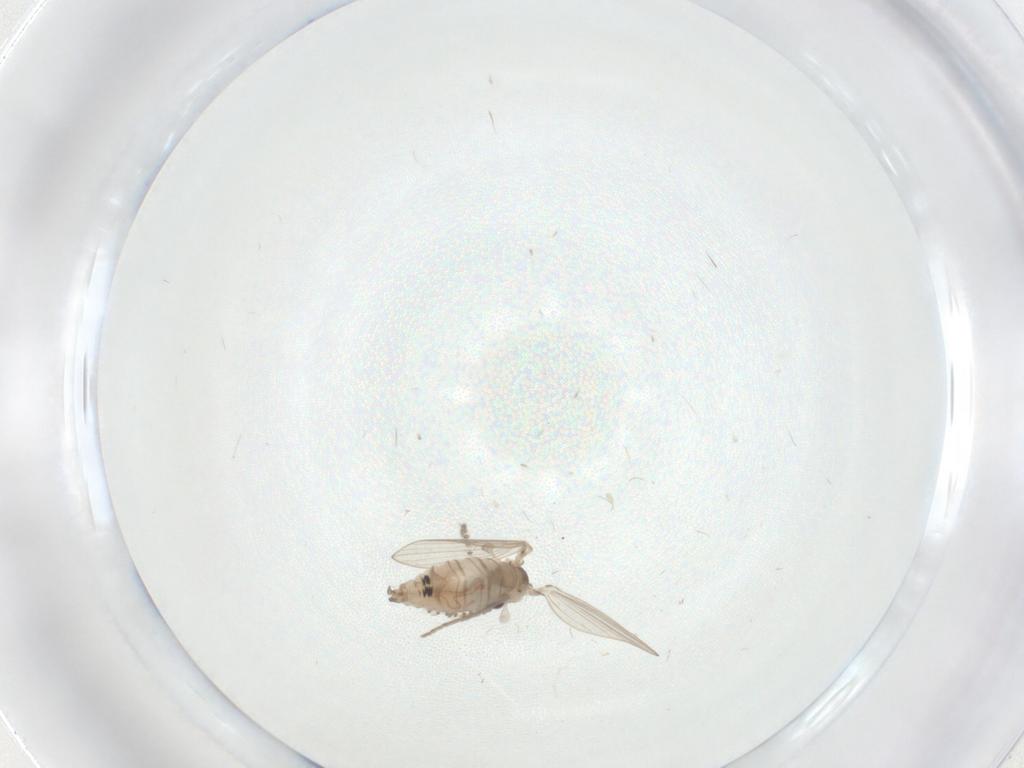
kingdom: Animalia
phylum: Arthropoda
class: Insecta
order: Diptera
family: Psychodidae
